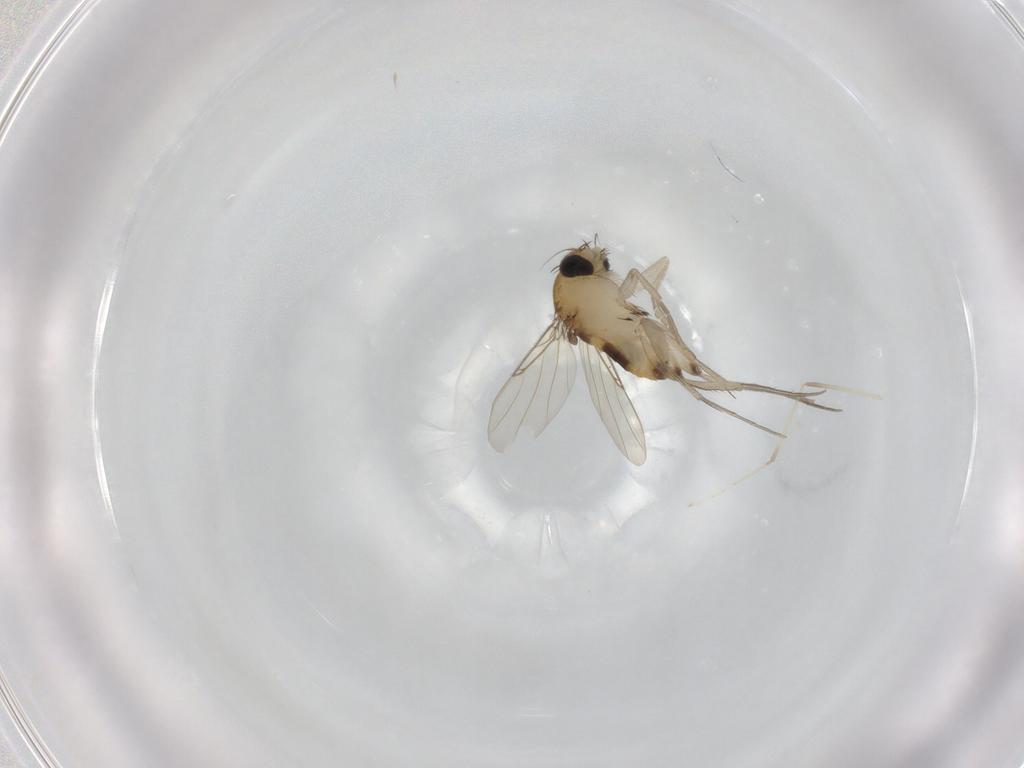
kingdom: Animalia
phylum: Arthropoda
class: Insecta
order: Diptera
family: Phoridae
